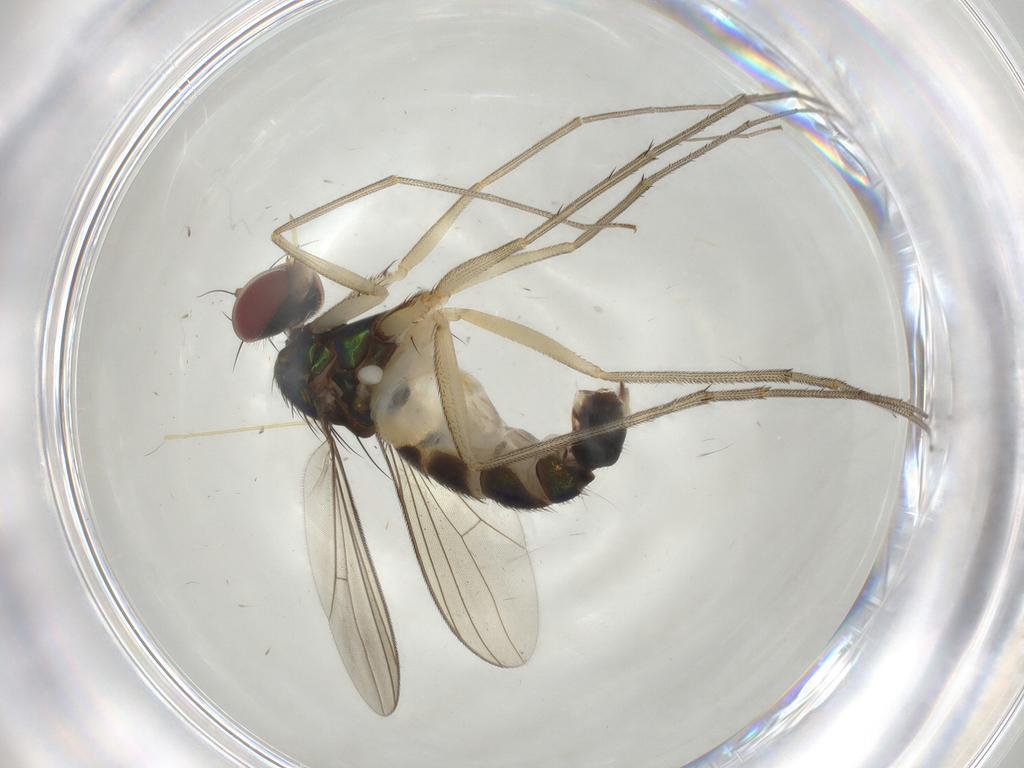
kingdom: Animalia
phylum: Arthropoda
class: Insecta
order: Diptera
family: Dolichopodidae
